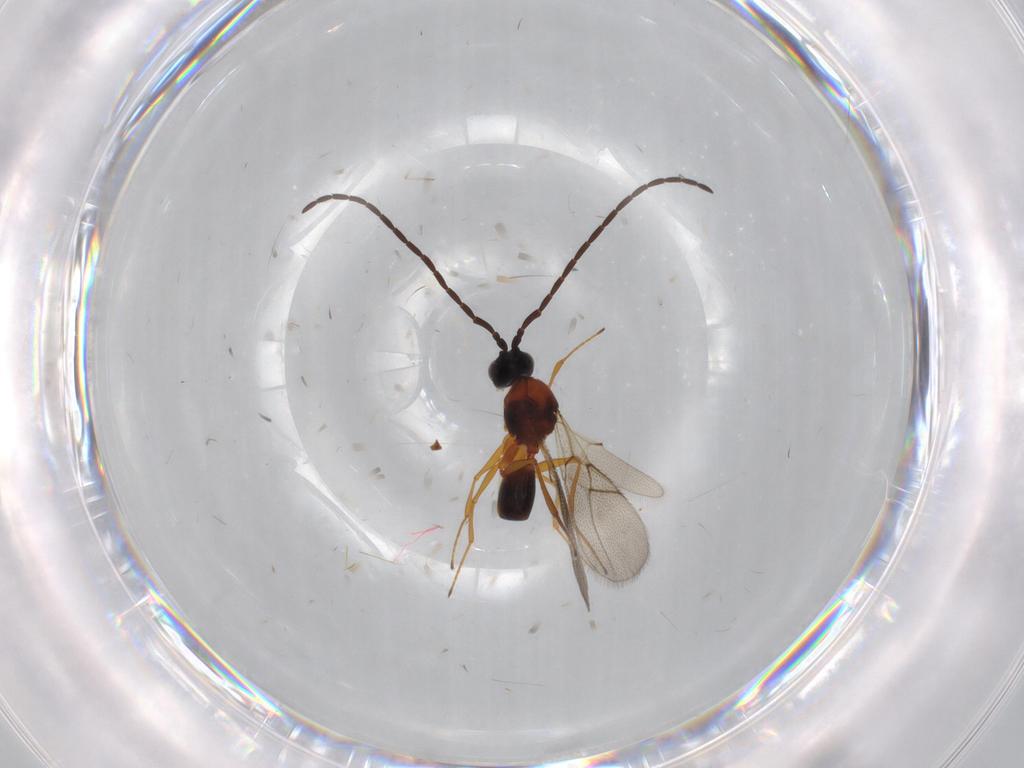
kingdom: Animalia
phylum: Arthropoda
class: Insecta
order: Hymenoptera
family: Figitidae
